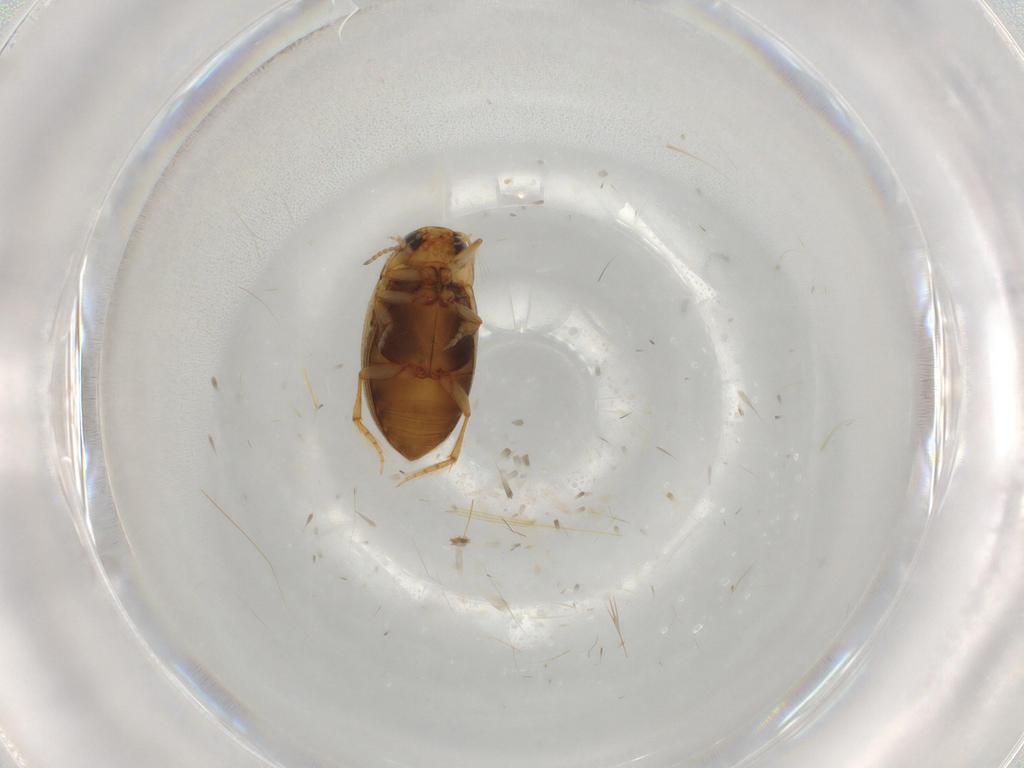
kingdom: Animalia
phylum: Arthropoda
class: Insecta
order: Coleoptera
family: Dytiscidae
